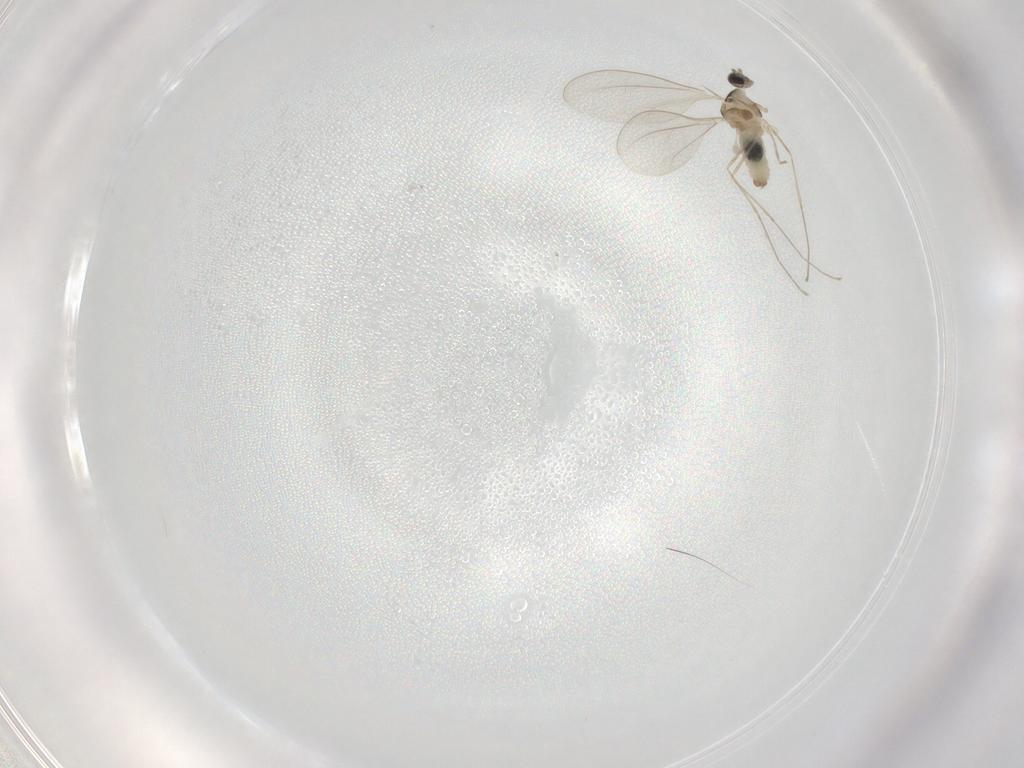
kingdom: Animalia
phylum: Arthropoda
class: Insecta
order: Diptera
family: Cecidomyiidae
